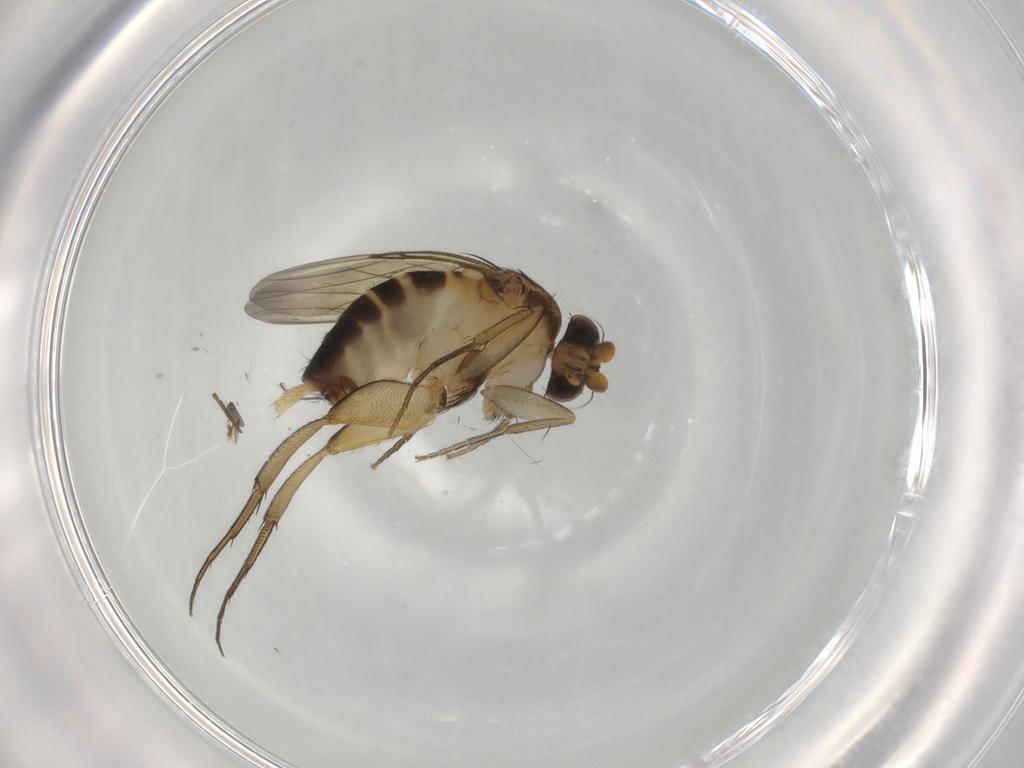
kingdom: Animalia
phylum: Arthropoda
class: Insecta
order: Diptera
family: Phoridae
